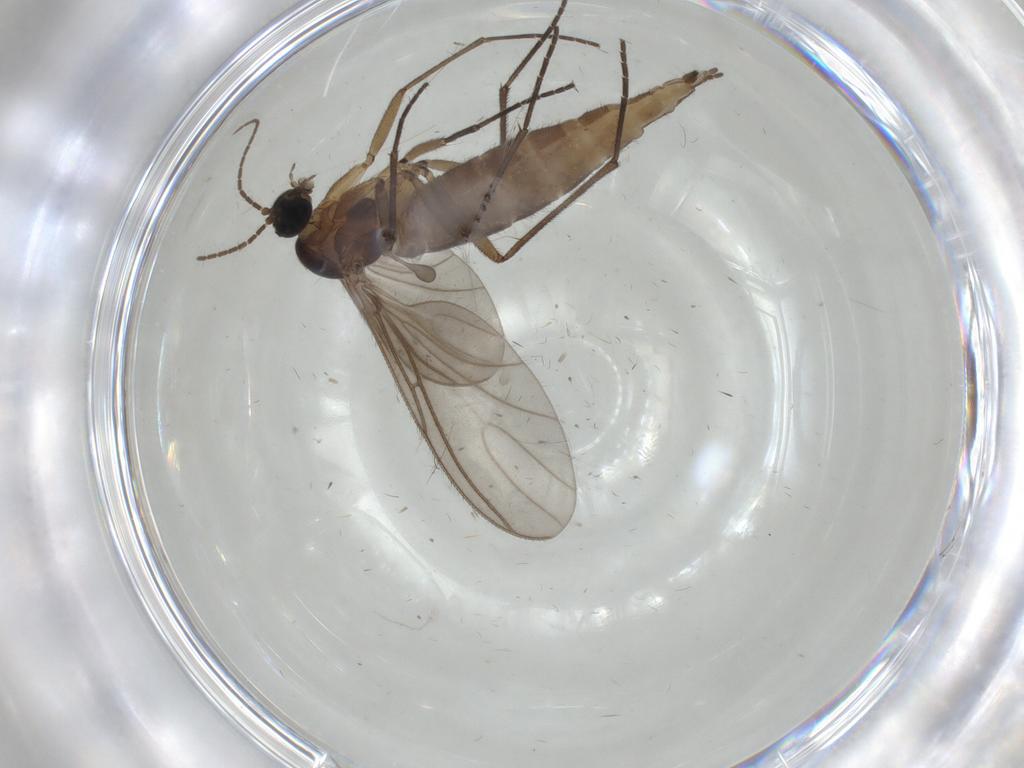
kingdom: Animalia
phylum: Arthropoda
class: Insecta
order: Diptera
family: Sciaridae
